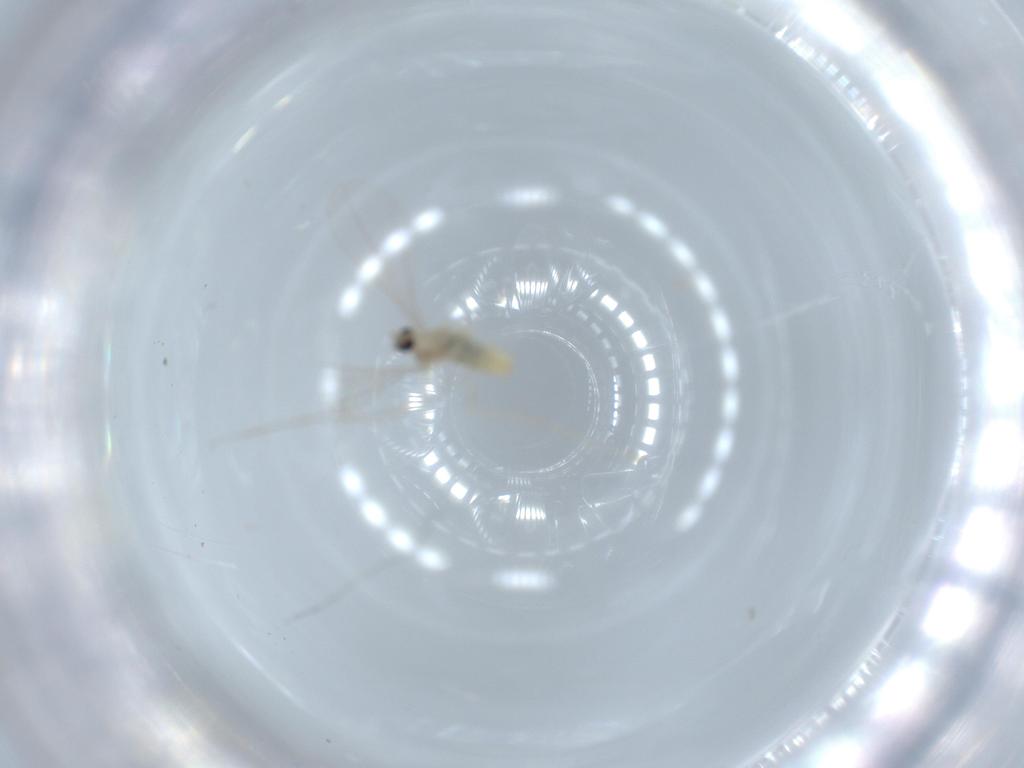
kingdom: Animalia
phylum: Arthropoda
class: Insecta
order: Diptera
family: Cecidomyiidae
